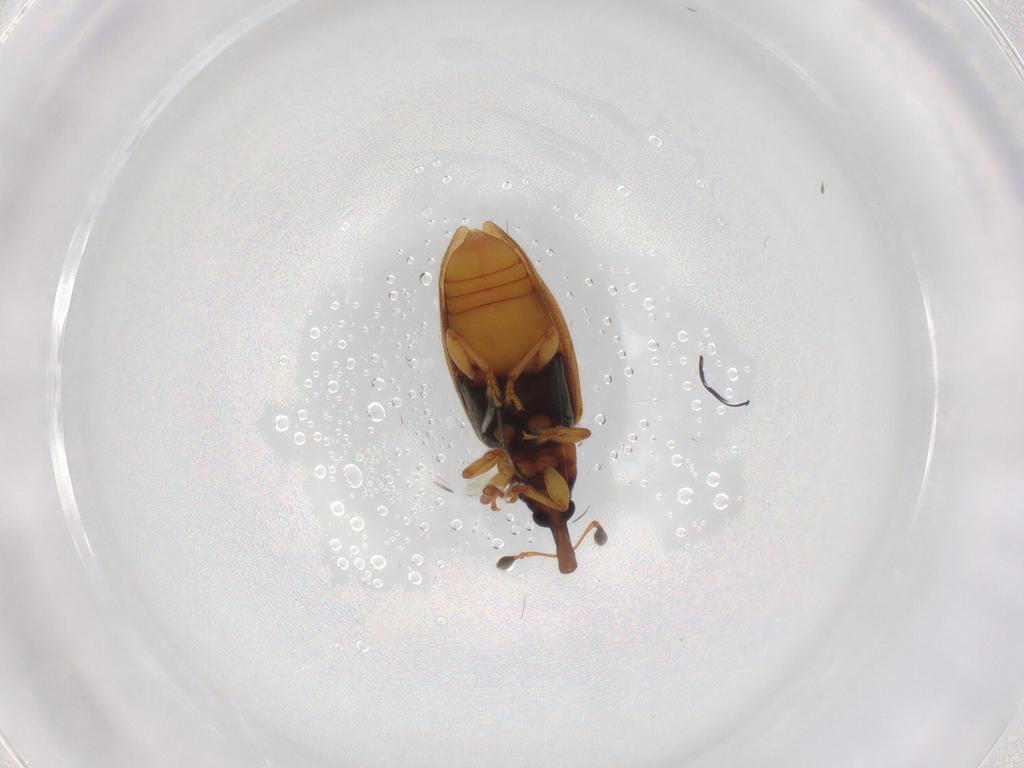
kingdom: Animalia
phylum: Arthropoda
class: Insecta
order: Coleoptera
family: Curculionidae
